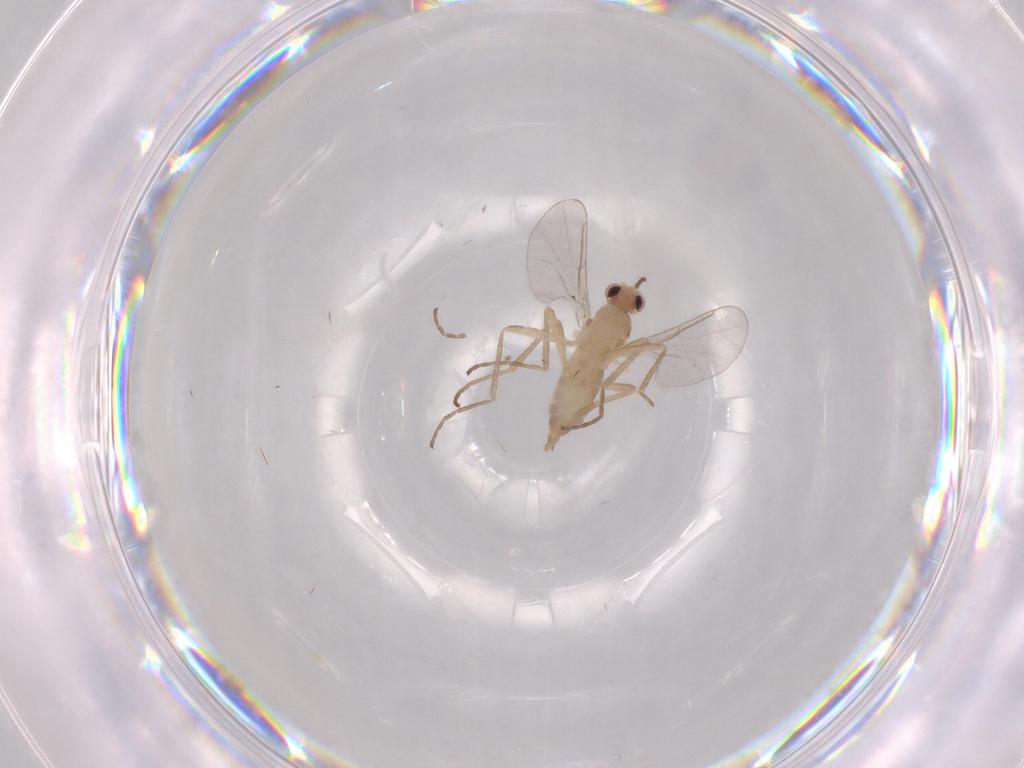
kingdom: Animalia
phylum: Arthropoda
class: Insecta
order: Diptera
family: Cecidomyiidae
